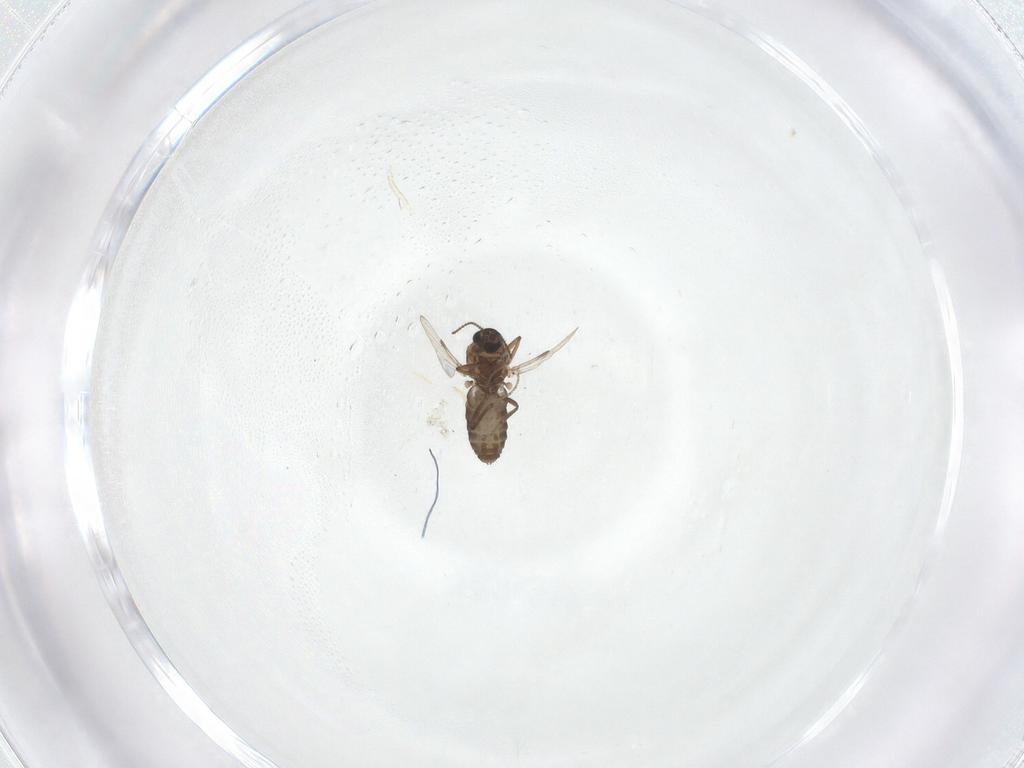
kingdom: Animalia
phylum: Arthropoda
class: Insecta
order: Diptera
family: Ceratopogonidae
